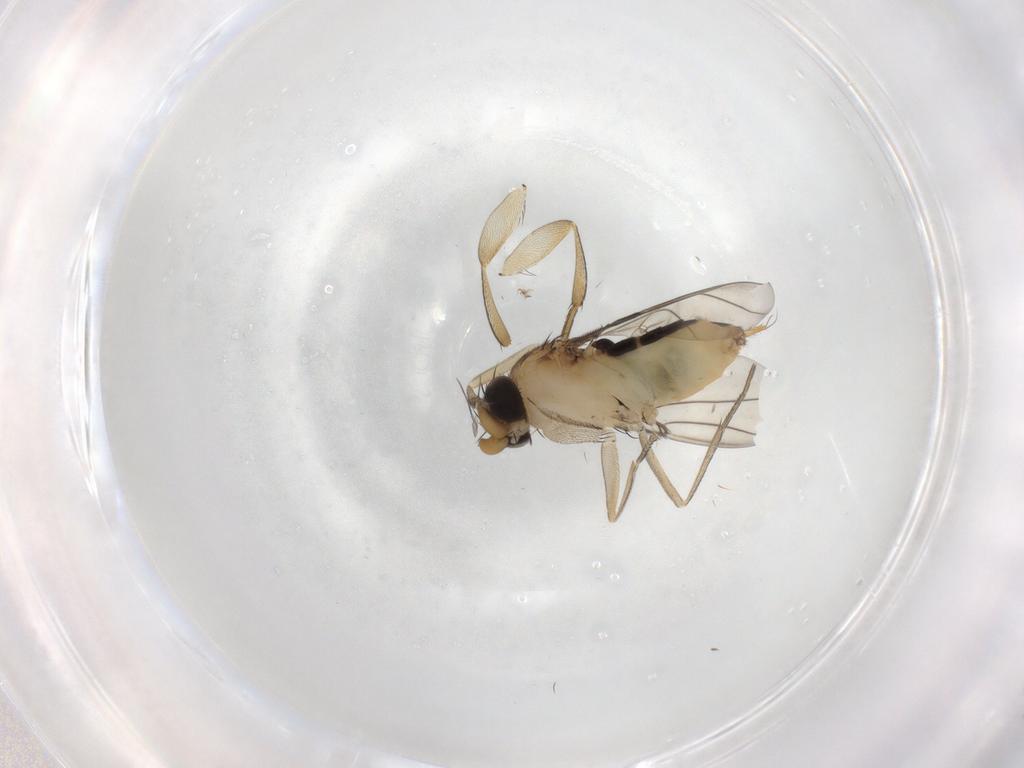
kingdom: Animalia
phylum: Arthropoda
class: Insecta
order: Diptera
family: Phoridae
